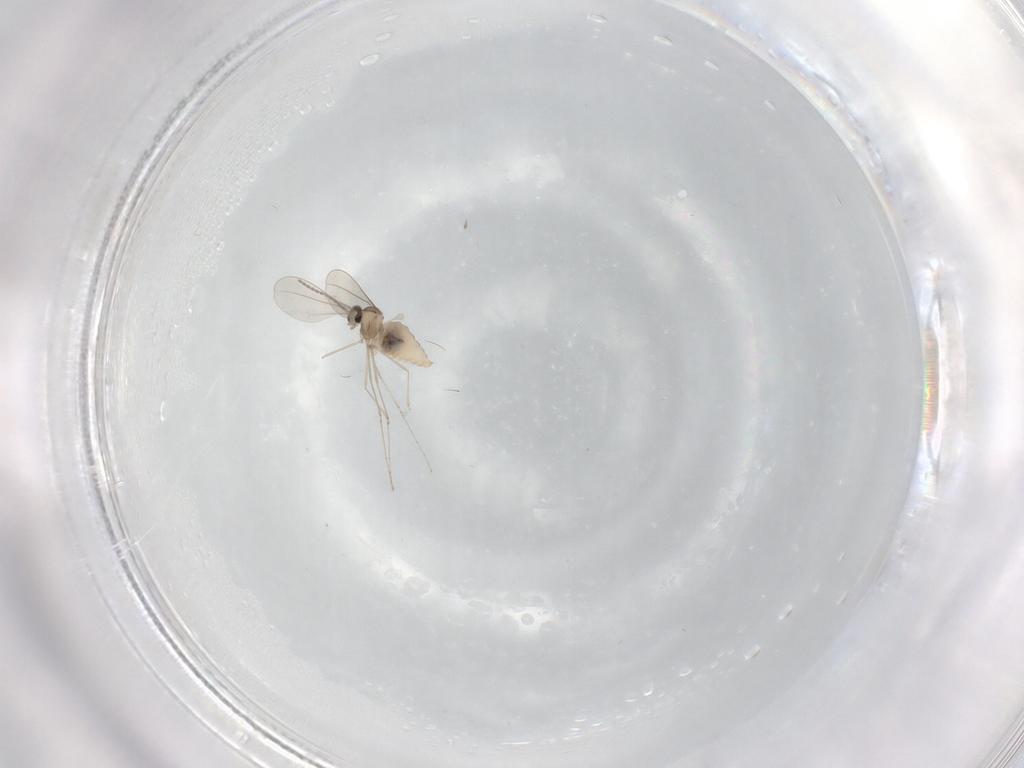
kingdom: Animalia
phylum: Arthropoda
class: Insecta
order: Diptera
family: Cecidomyiidae
